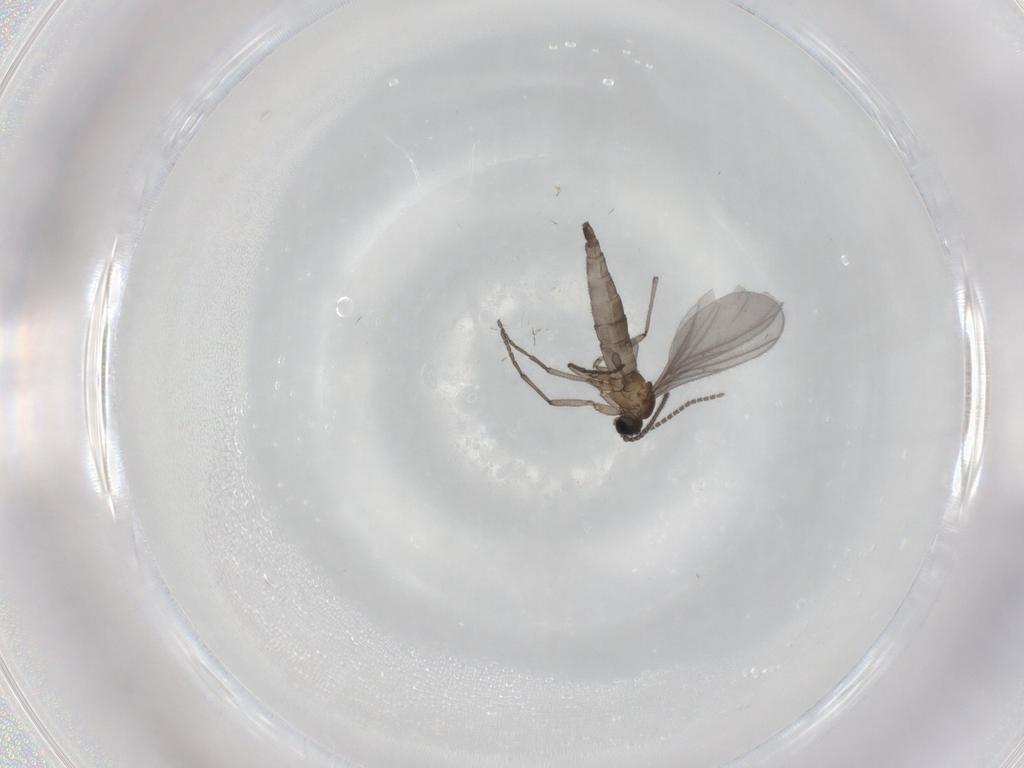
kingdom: Animalia
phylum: Arthropoda
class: Insecta
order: Diptera
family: Sciaridae
